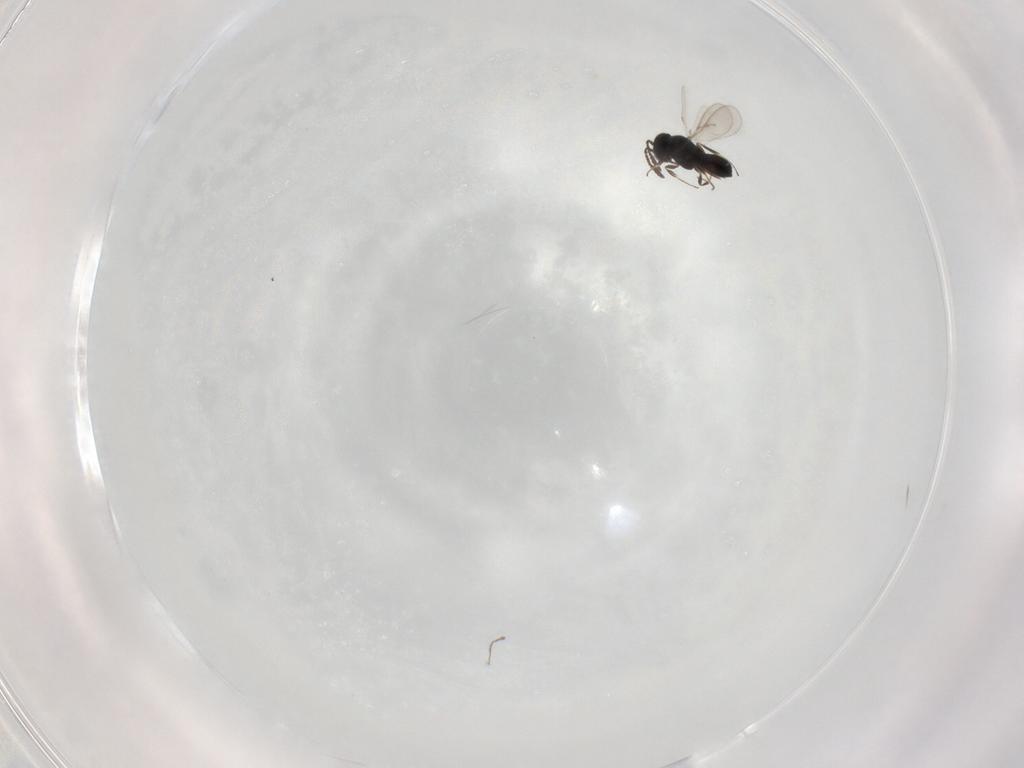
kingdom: Animalia
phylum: Arthropoda
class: Insecta
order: Hymenoptera
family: Scelionidae
